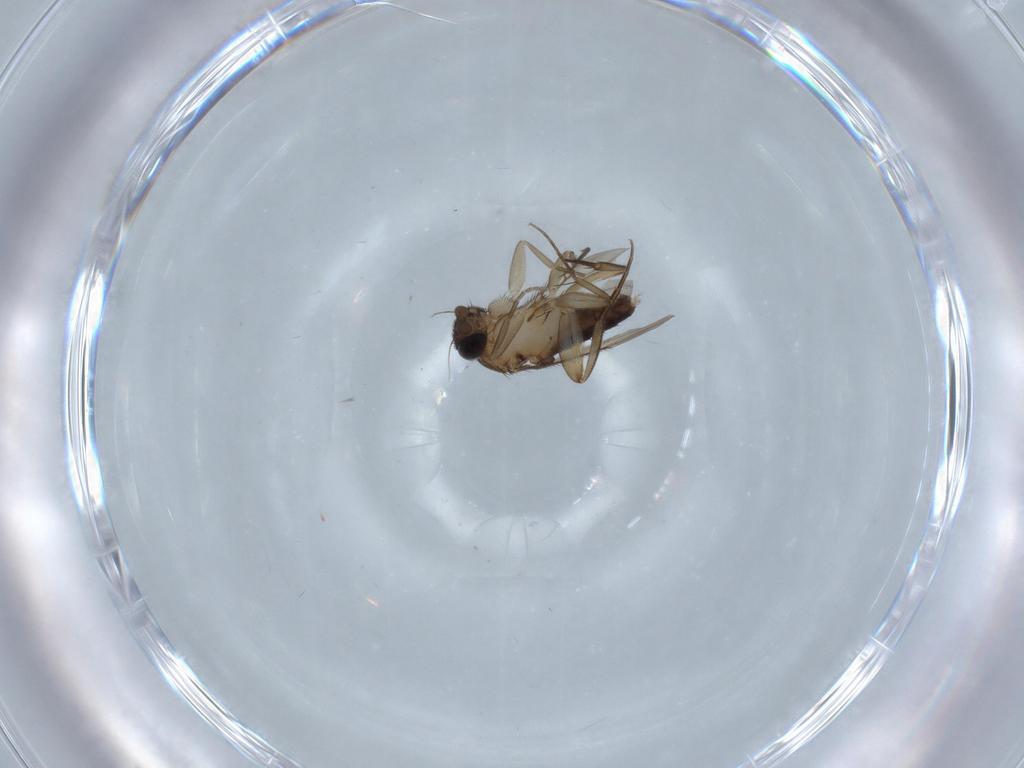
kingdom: Animalia
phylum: Arthropoda
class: Insecta
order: Diptera
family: Phoridae
